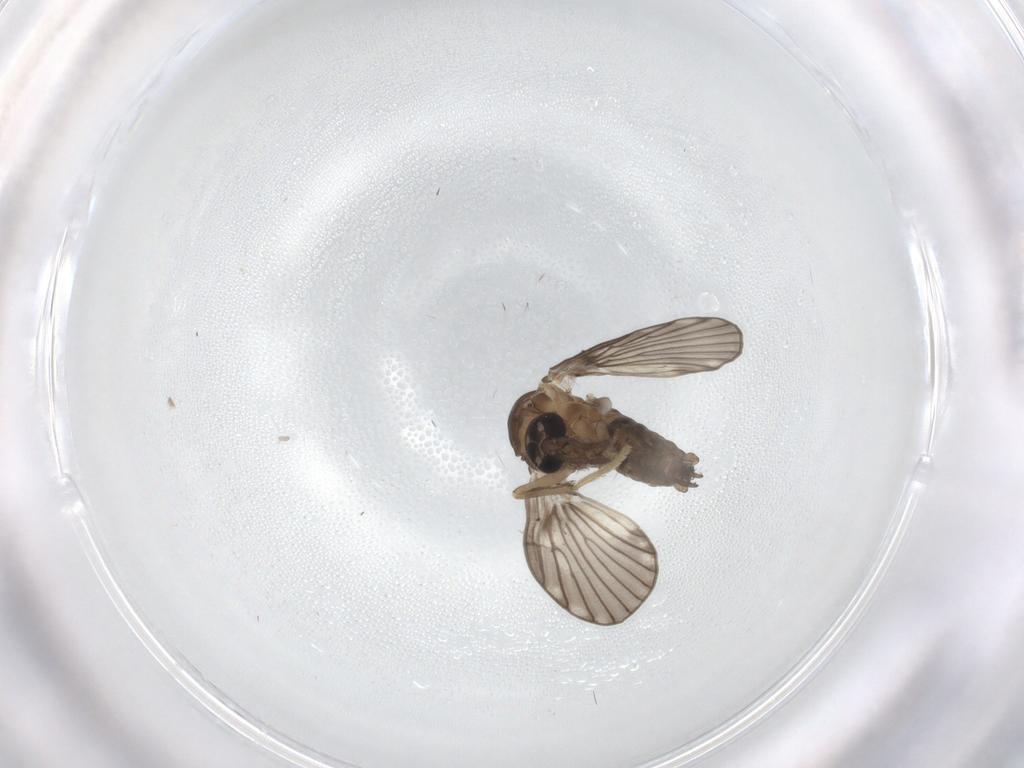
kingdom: Animalia
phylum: Arthropoda
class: Insecta
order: Diptera
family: Psychodidae
